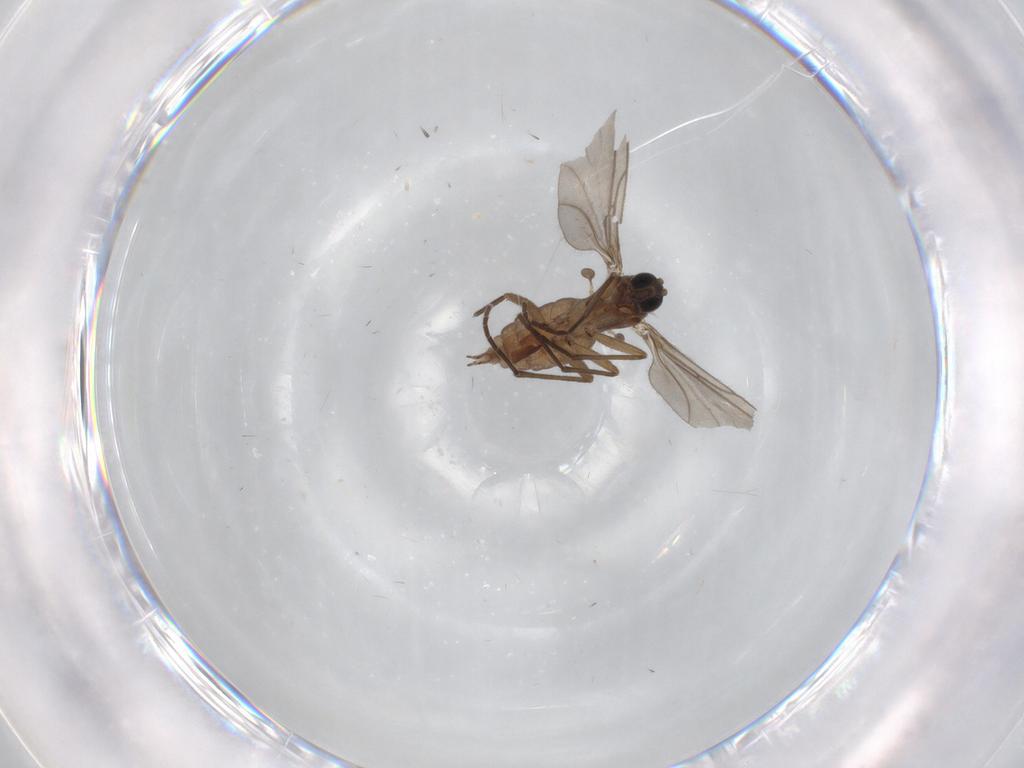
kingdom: Animalia
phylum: Arthropoda
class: Insecta
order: Diptera
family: Sciaridae
